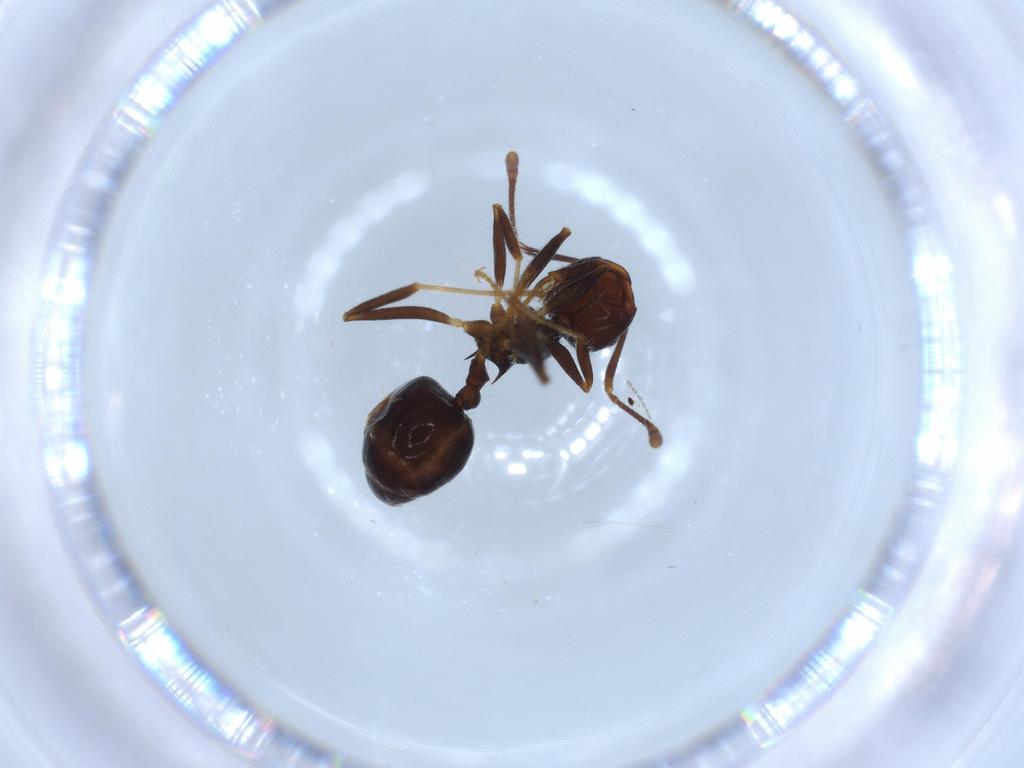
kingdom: Animalia
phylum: Arthropoda
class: Insecta
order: Hymenoptera
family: Formicidae
